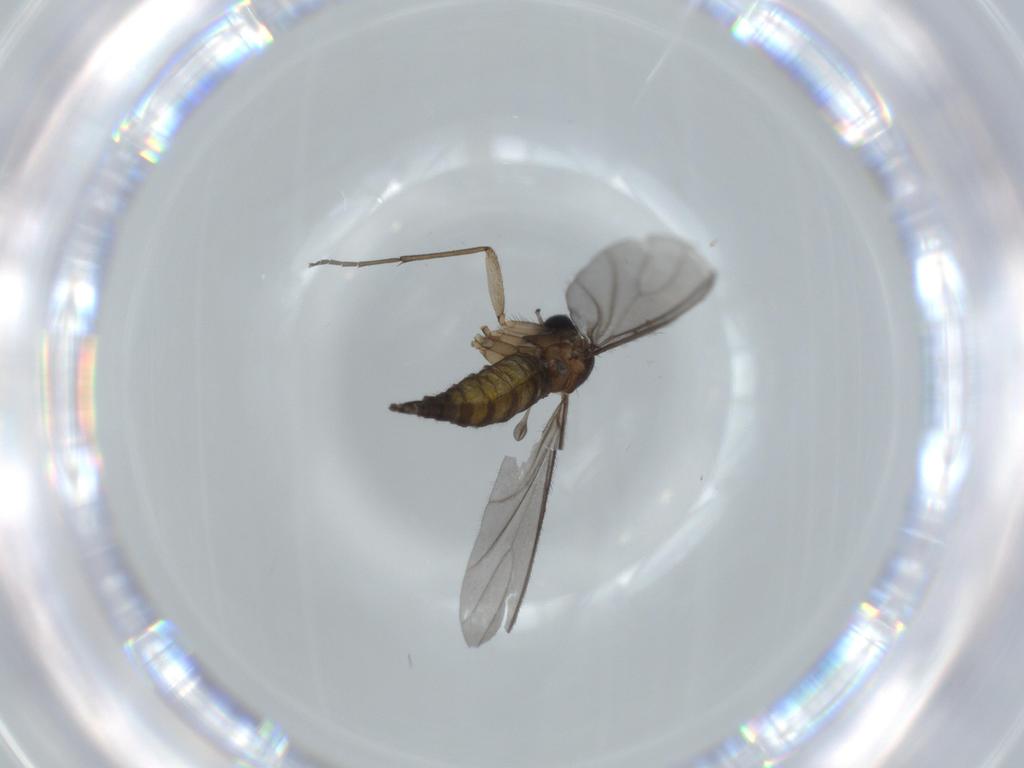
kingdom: Animalia
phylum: Arthropoda
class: Insecta
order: Diptera
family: Sciaridae
